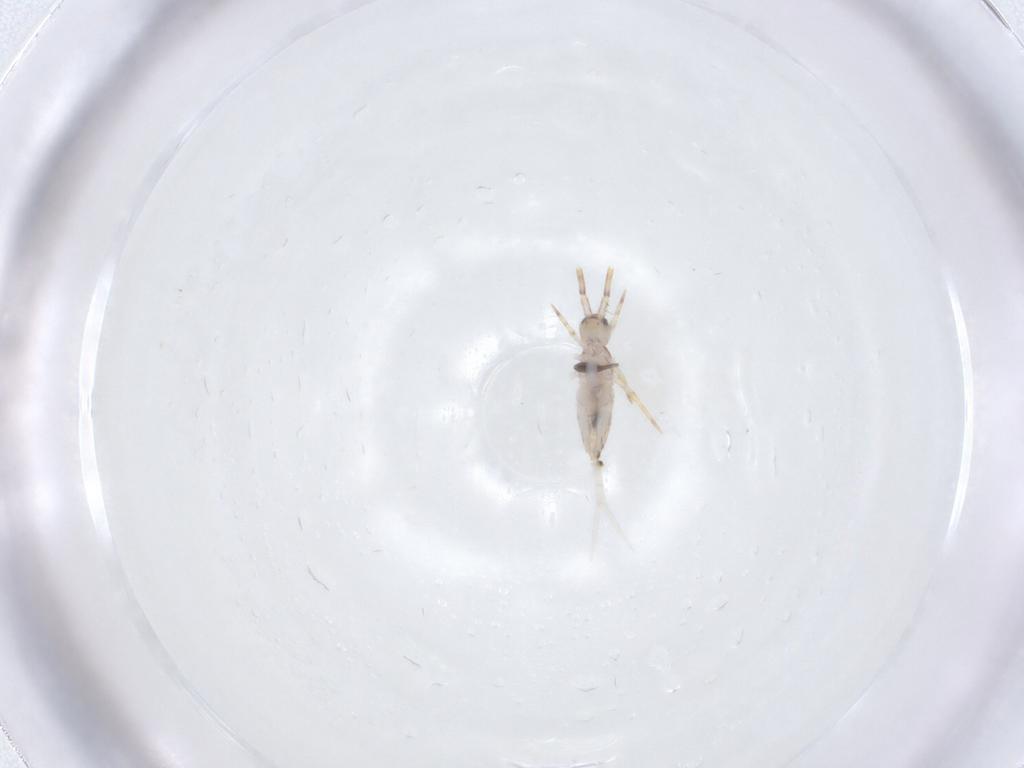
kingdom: Animalia
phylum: Arthropoda
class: Collembola
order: Entomobryomorpha
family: Entomobryidae
